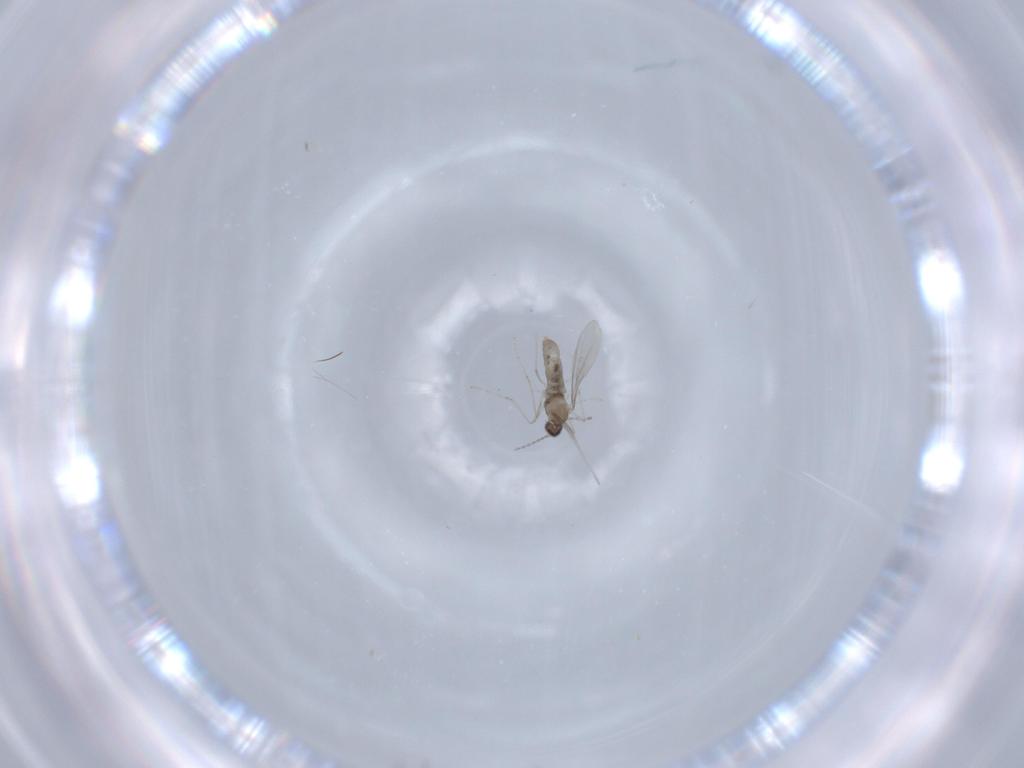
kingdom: Animalia
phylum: Arthropoda
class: Insecta
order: Diptera
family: Cecidomyiidae
